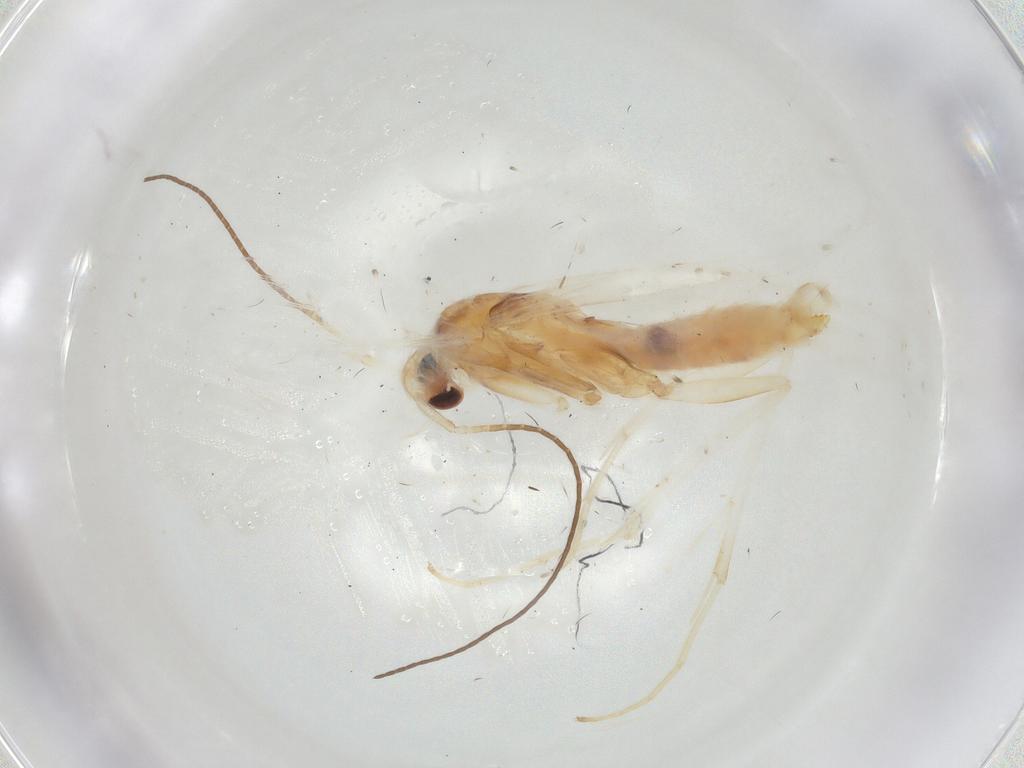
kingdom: Animalia
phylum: Arthropoda
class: Insecta
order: Lepidoptera
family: Gelechiidae
